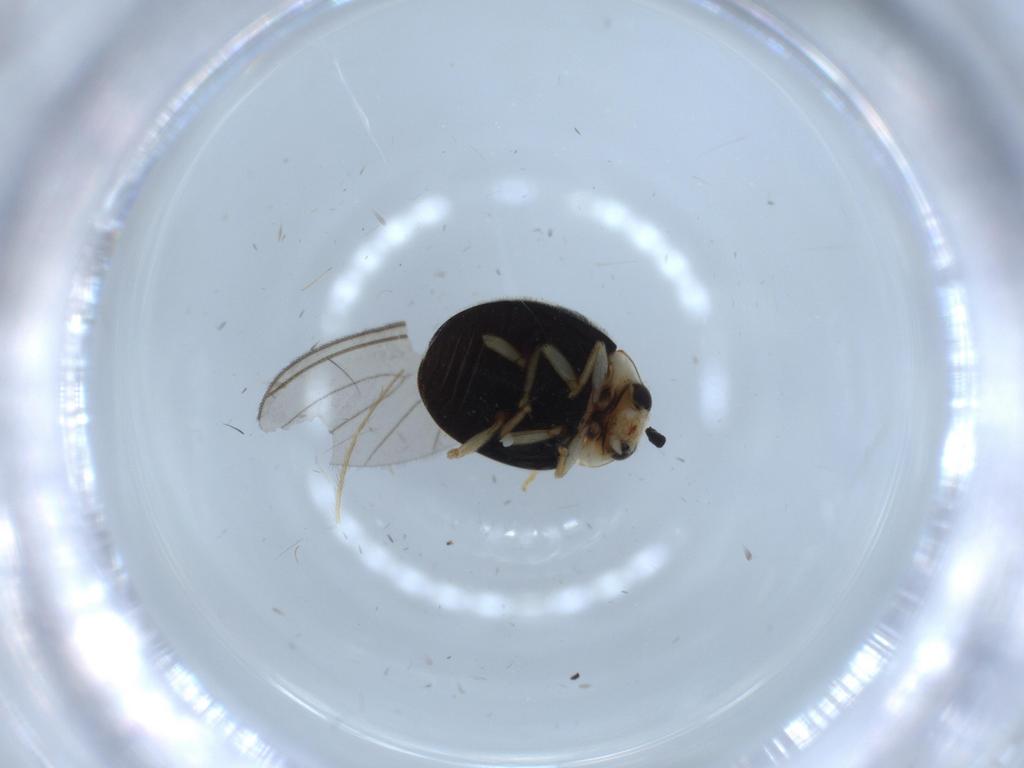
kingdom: Animalia
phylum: Arthropoda
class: Insecta
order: Coleoptera
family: Coccinellidae
